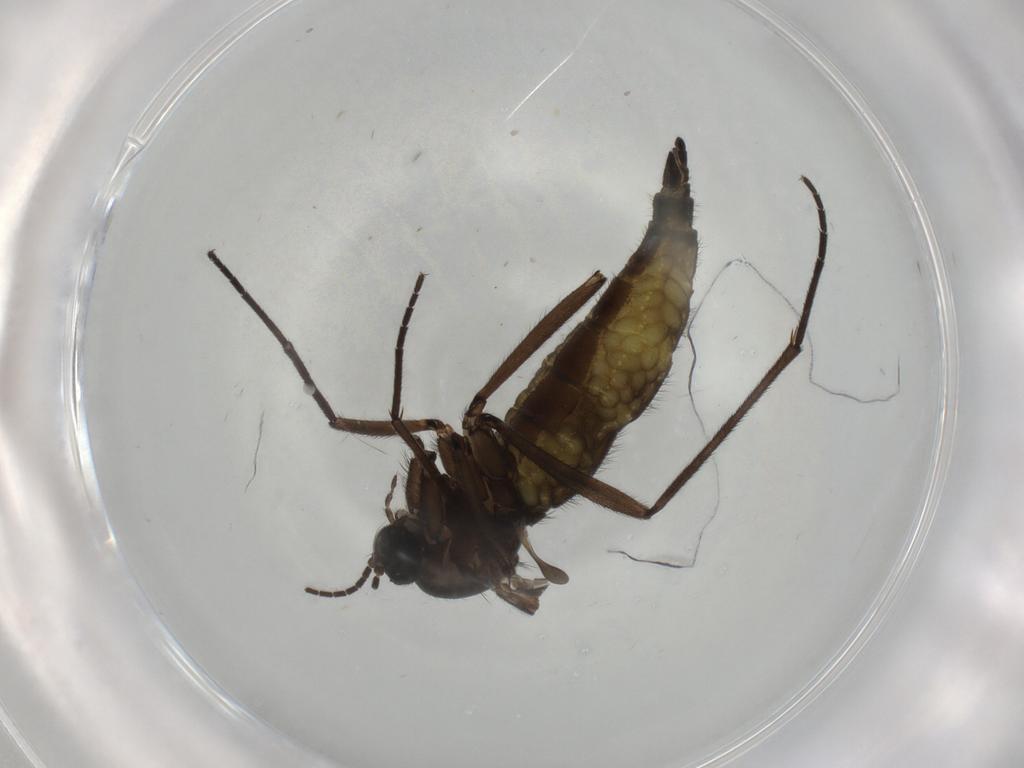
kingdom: Animalia
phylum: Arthropoda
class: Insecta
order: Diptera
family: Sciaridae
